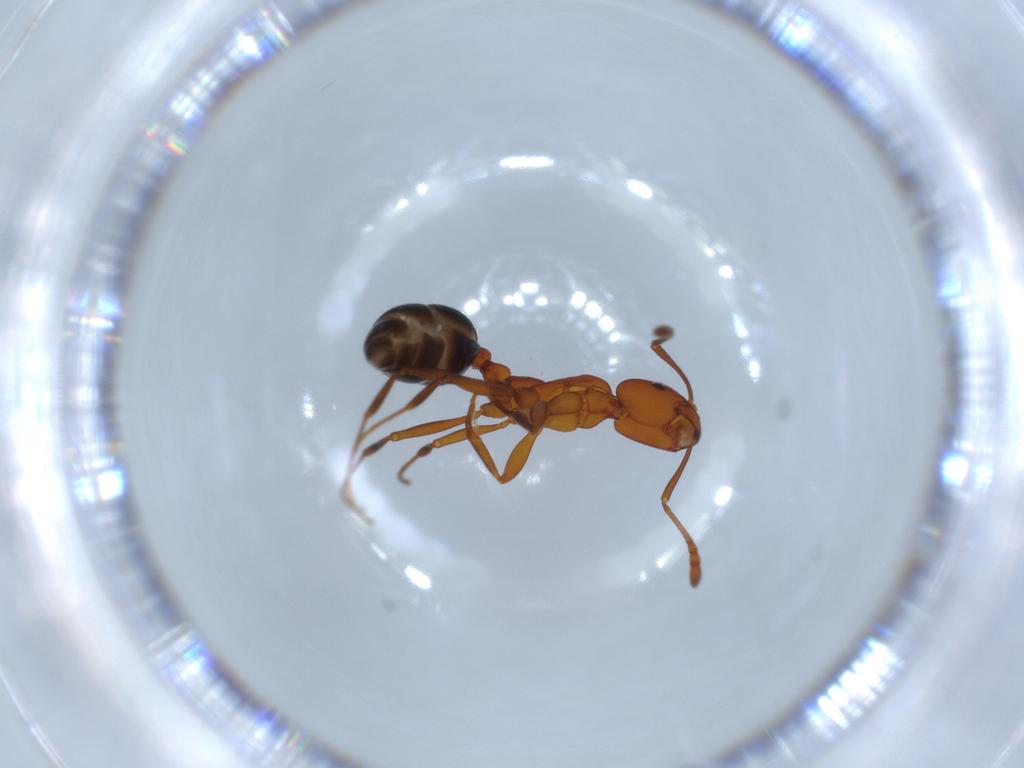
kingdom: Animalia
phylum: Arthropoda
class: Insecta
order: Hymenoptera
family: Formicidae
